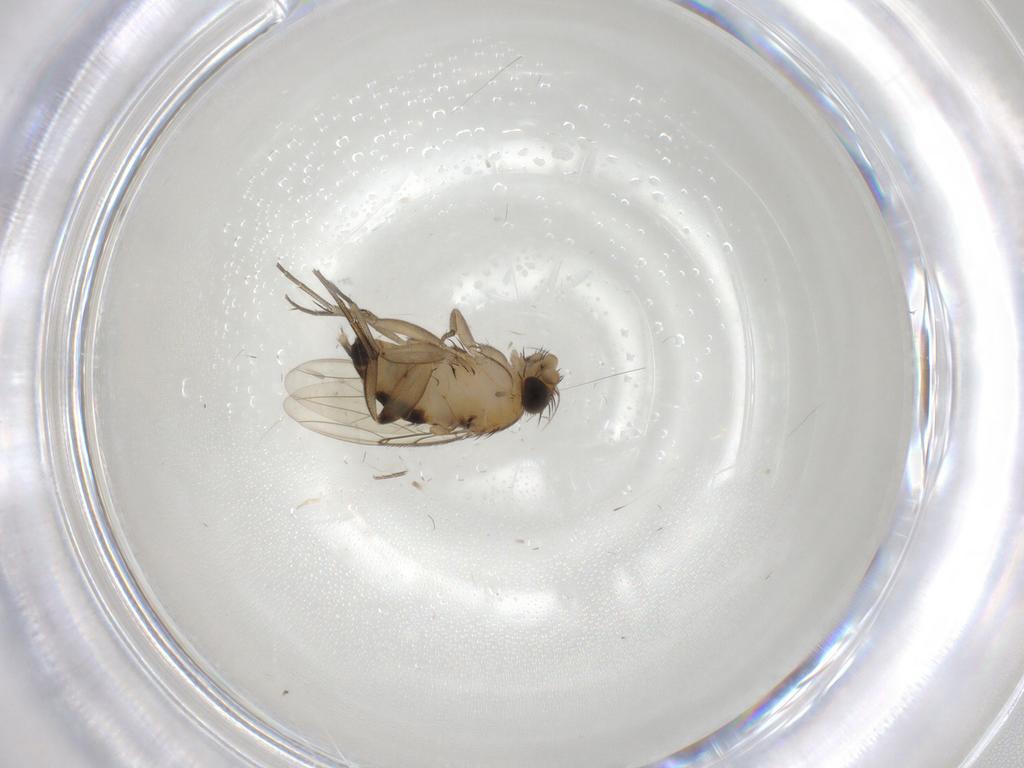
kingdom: Animalia
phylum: Arthropoda
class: Insecta
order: Diptera
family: Phoridae
